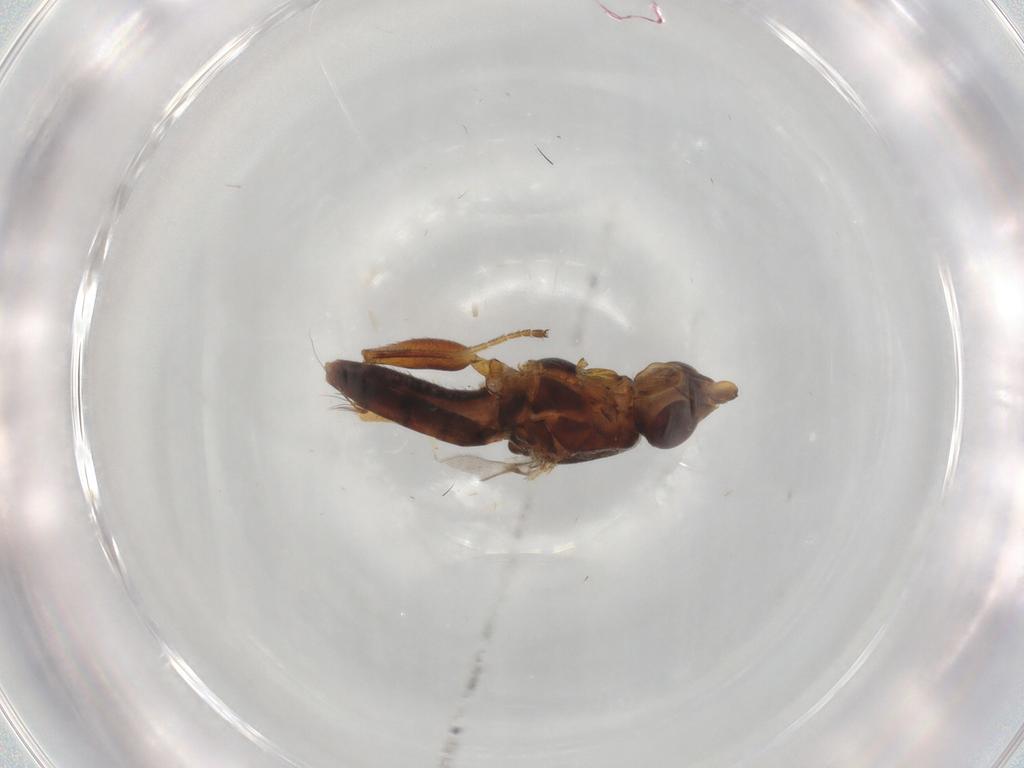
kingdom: Animalia
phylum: Arthropoda
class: Insecta
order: Diptera
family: Chloropidae
